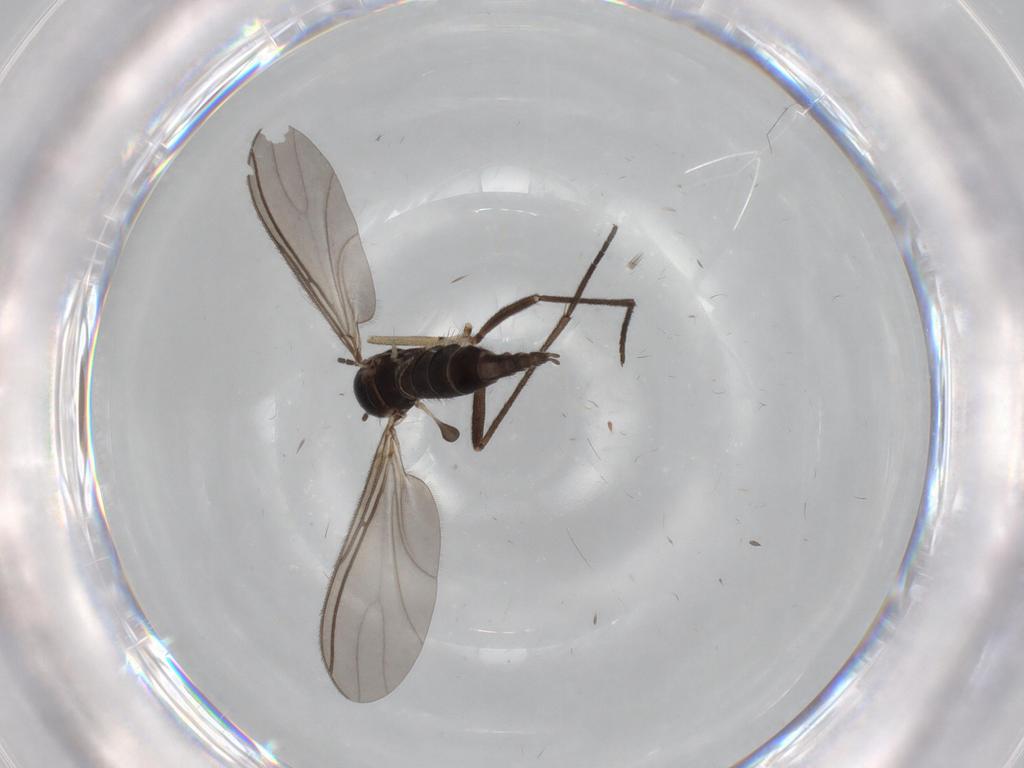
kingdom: Animalia
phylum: Arthropoda
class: Insecta
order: Diptera
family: Sciaridae
